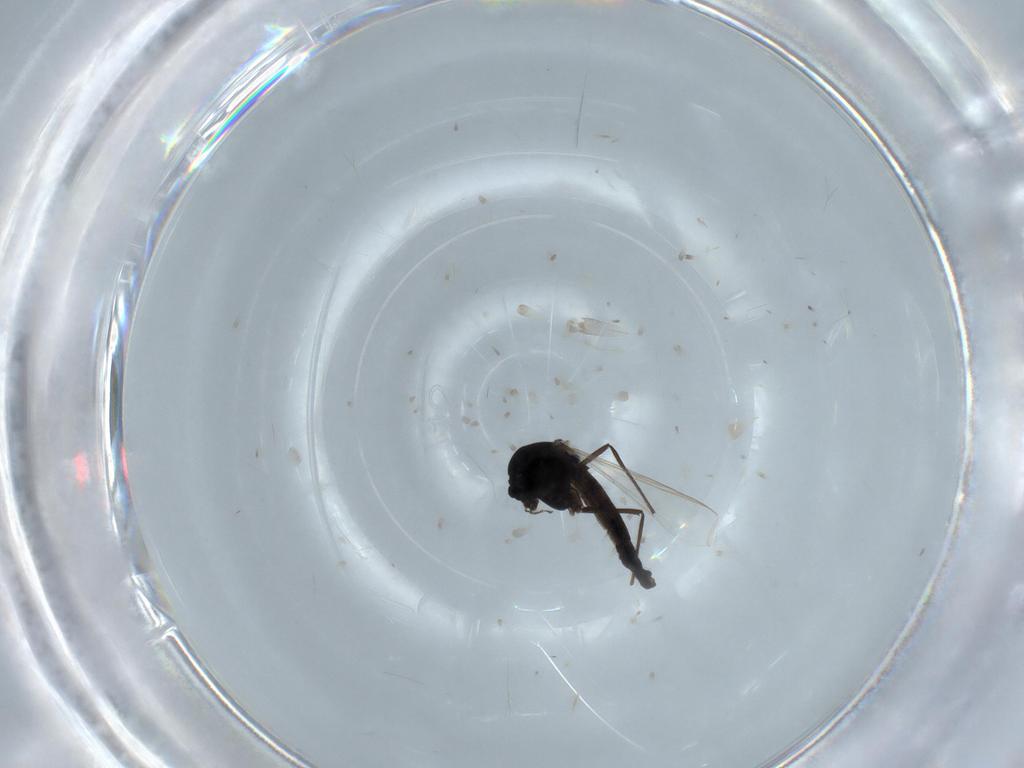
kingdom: Animalia
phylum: Arthropoda
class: Insecta
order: Diptera
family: Chironomidae
